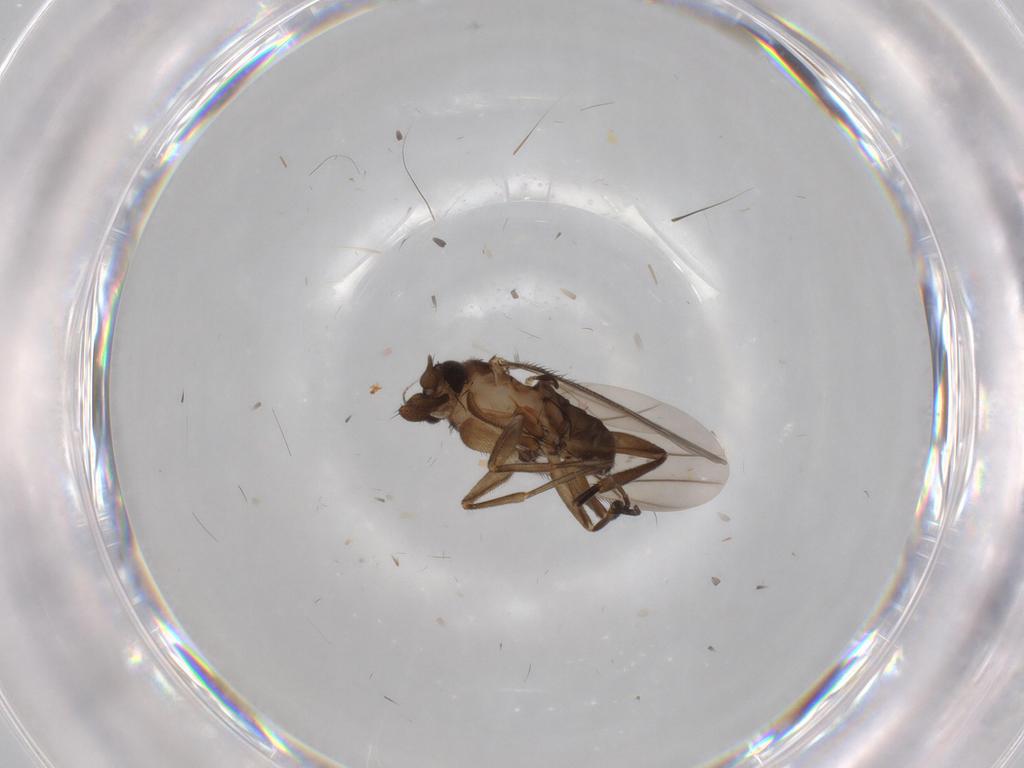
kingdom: Animalia
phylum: Arthropoda
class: Insecta
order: Diptera
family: Phoridae
